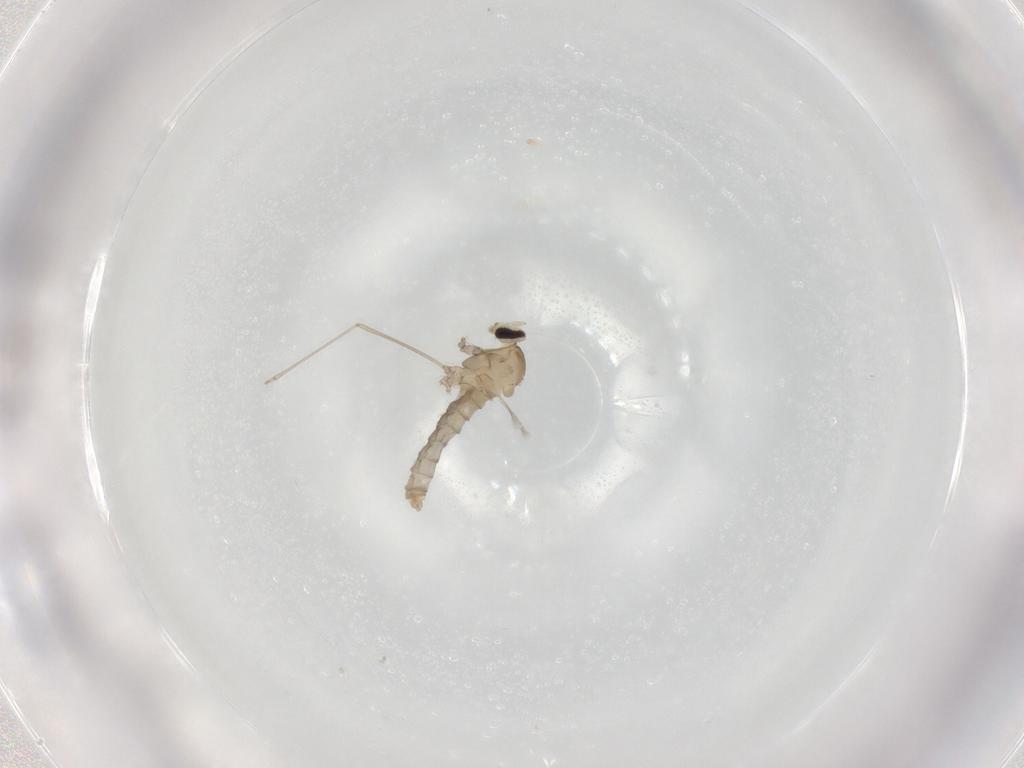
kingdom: Animalia
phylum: Arthropoda
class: Insecta
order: Diptera
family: Cecidomyiidae
